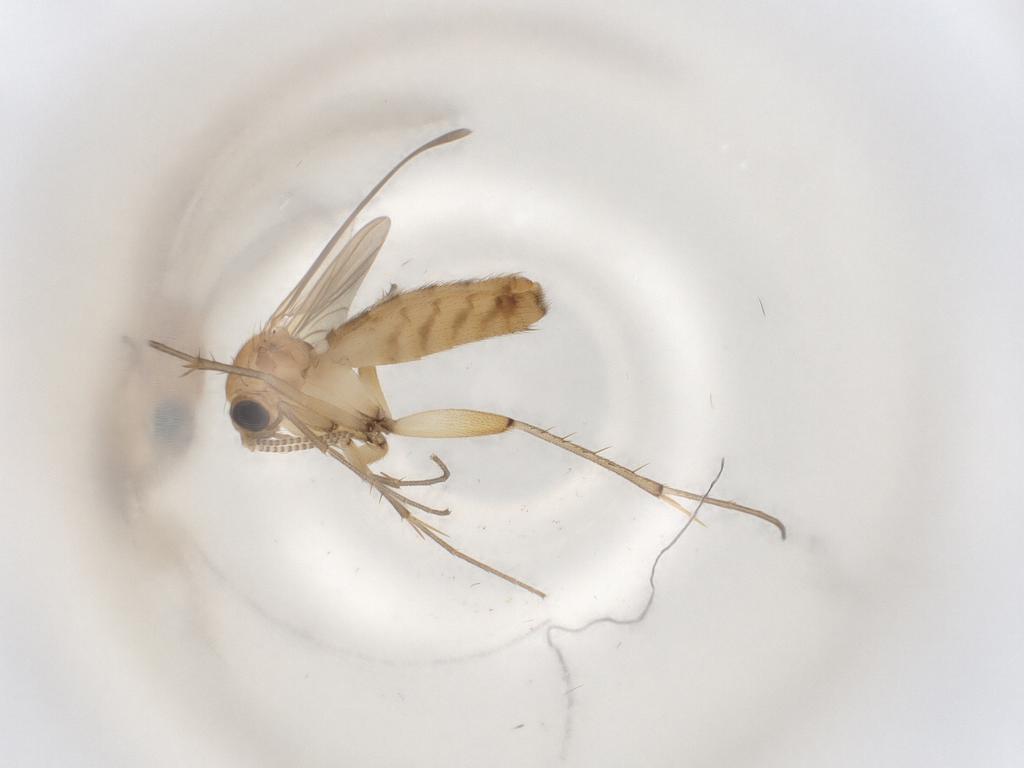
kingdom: Animalia
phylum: Arthropoda
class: Insecta
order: Diptera
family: Mycetophilidae
